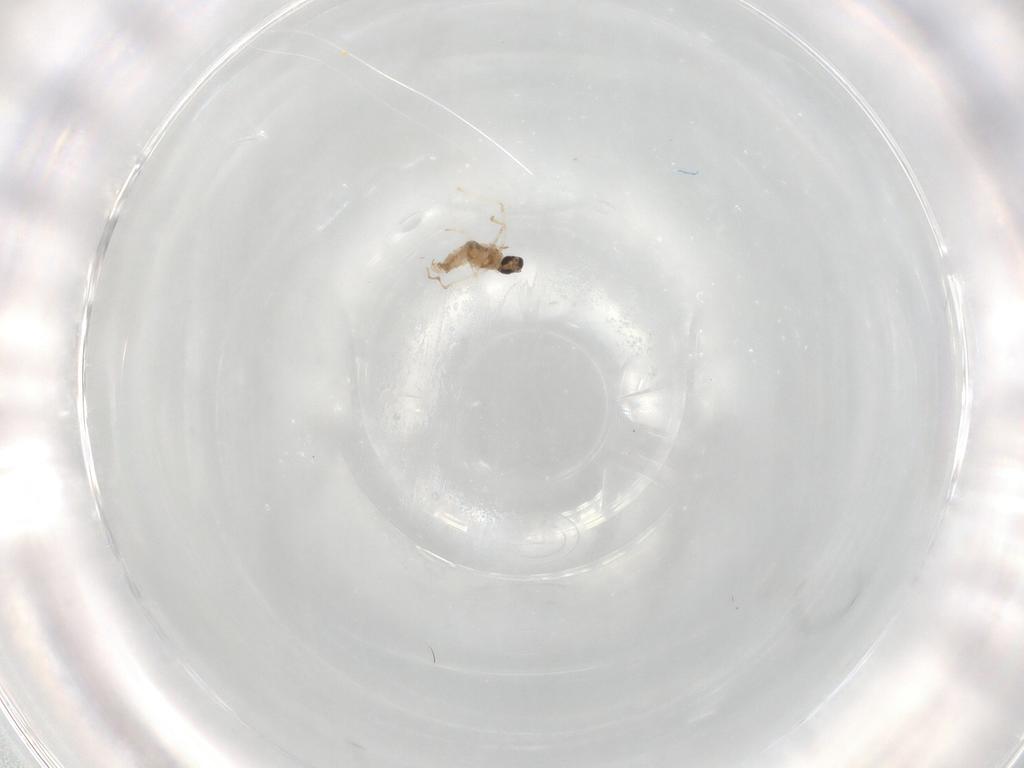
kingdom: Animalia
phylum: Arthropoda
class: Insecta
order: Diptera
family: Cecidomyiidae
